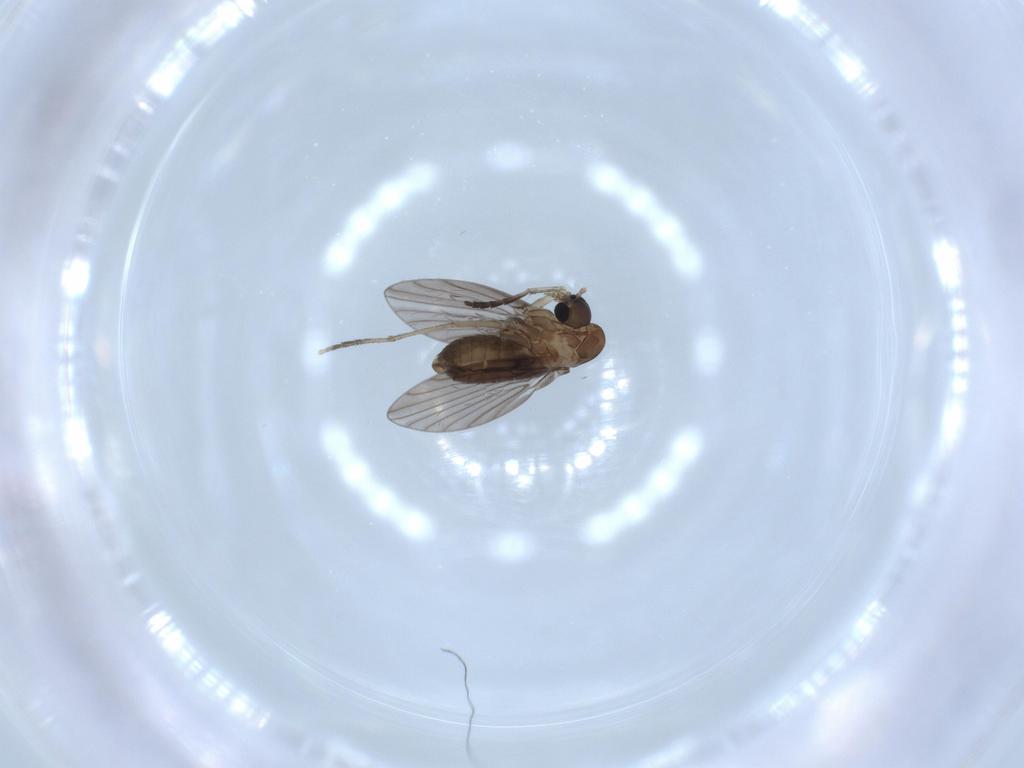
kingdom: Animalia
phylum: Arthropoda
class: Insecta
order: Diptera
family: Psychodidae
